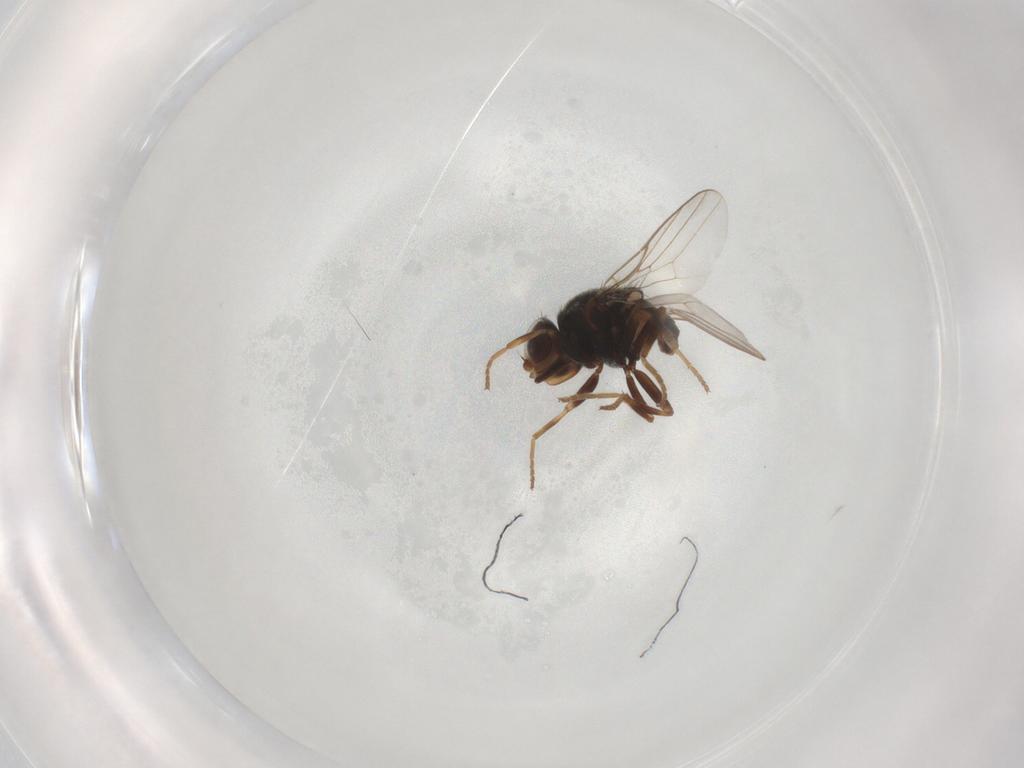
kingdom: Animalia
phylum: Arthropoda
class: Insecta
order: Diptera
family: Chloropidae
